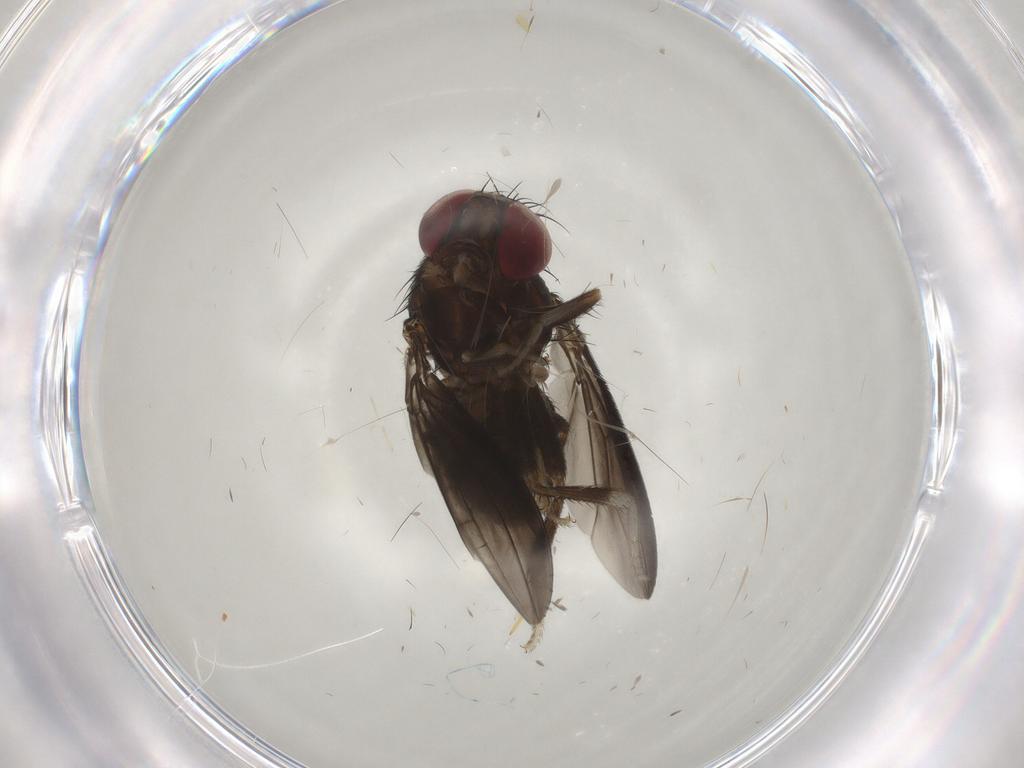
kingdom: Animalia
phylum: Arthropoda
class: Insecta
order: Diptera
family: Drosophilidae
